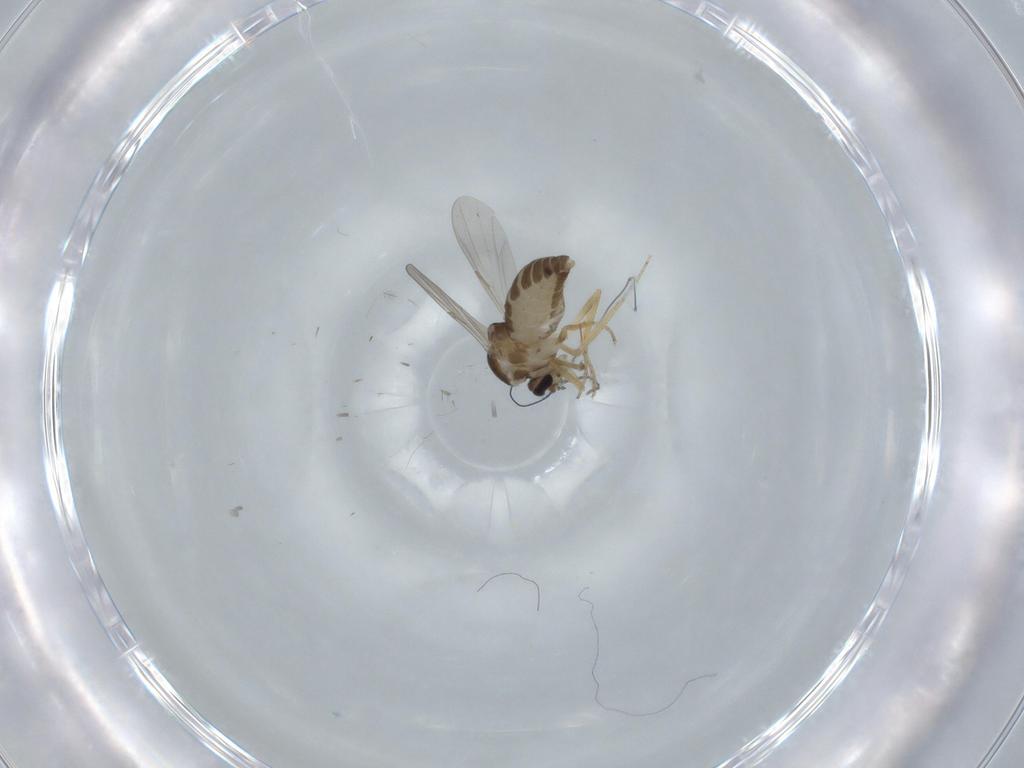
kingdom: Animalia
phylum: Arthropoda
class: Insecta
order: Diptera
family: Ceratopogonidae
